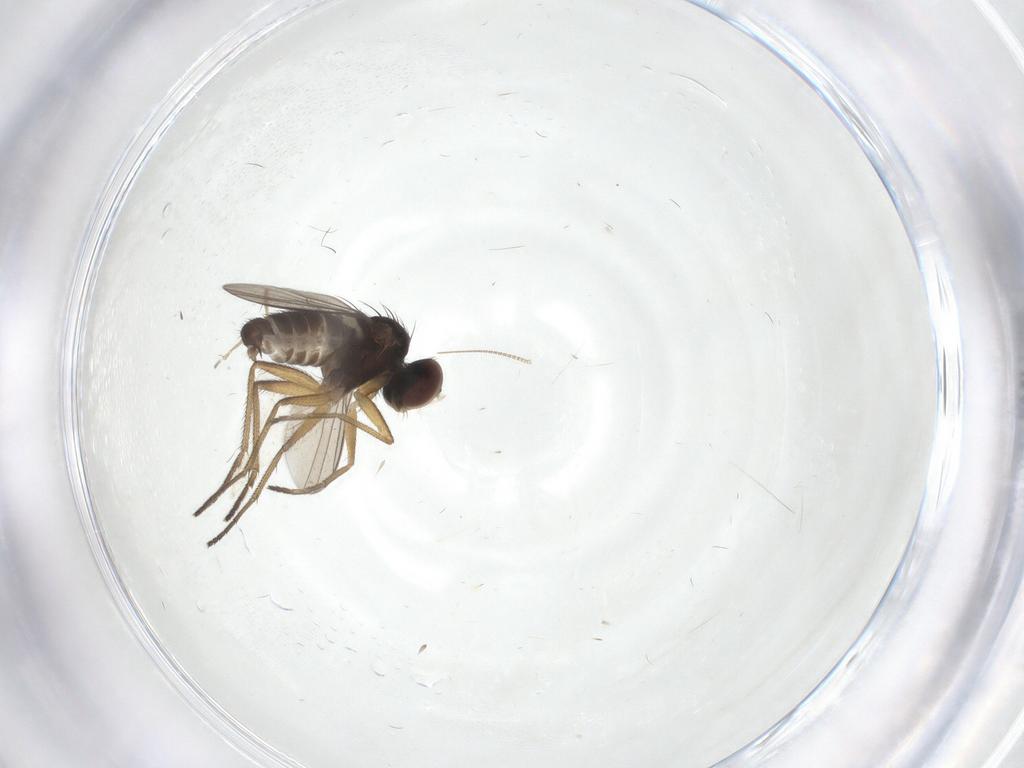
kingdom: Animalia
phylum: Arthropoda
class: Insecta
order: Diptera
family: Dolichopodidae
